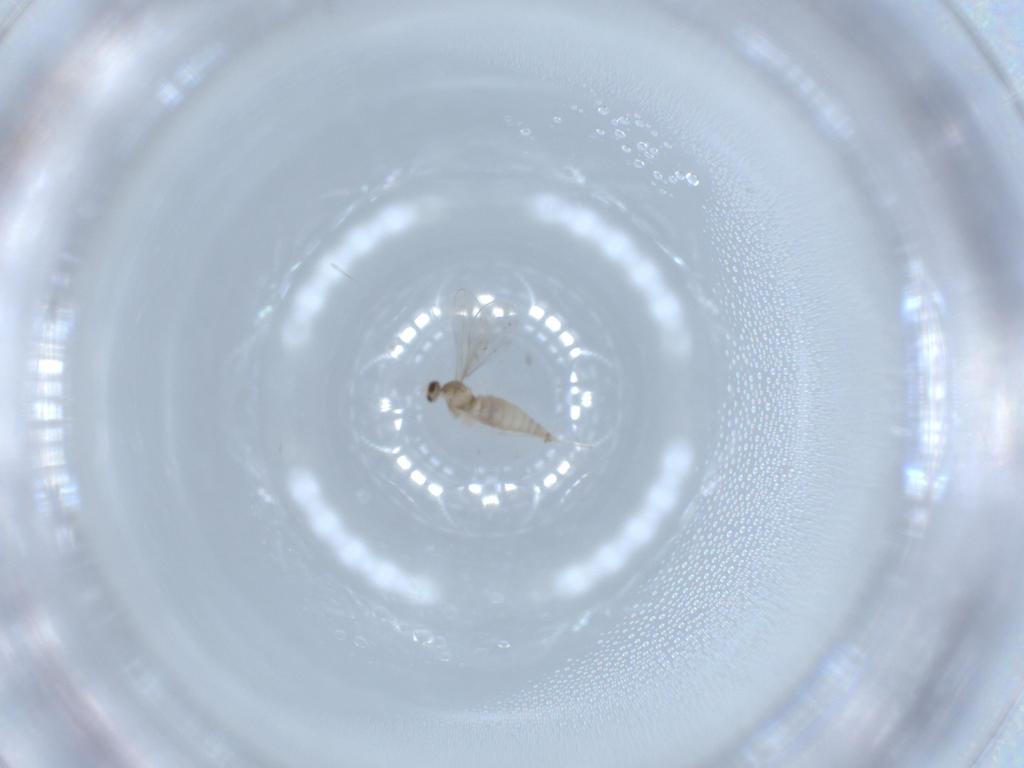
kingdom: Animalia
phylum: Arthropoda
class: Insecta
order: Diptera
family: Cecidomyiidae
